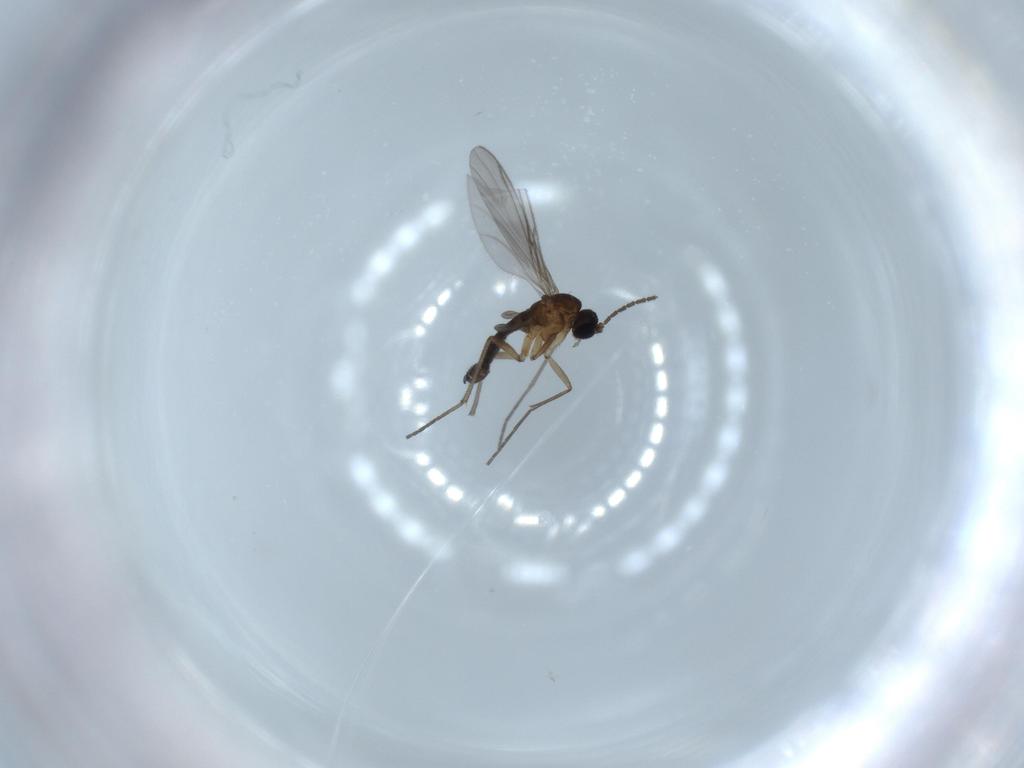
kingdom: Animalia
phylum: Arthropoda
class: Insecta
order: Diptera
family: Sciaridae
